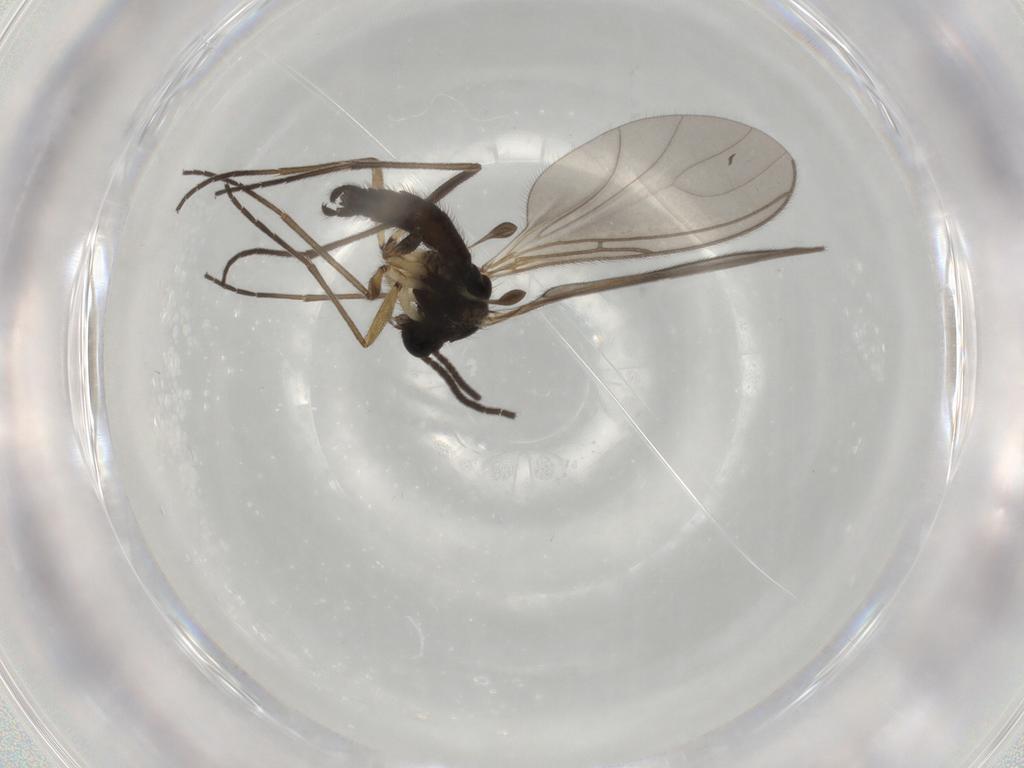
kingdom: Animalia
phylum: Arthropoda
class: Insecta
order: Diptera
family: Sciaridae
